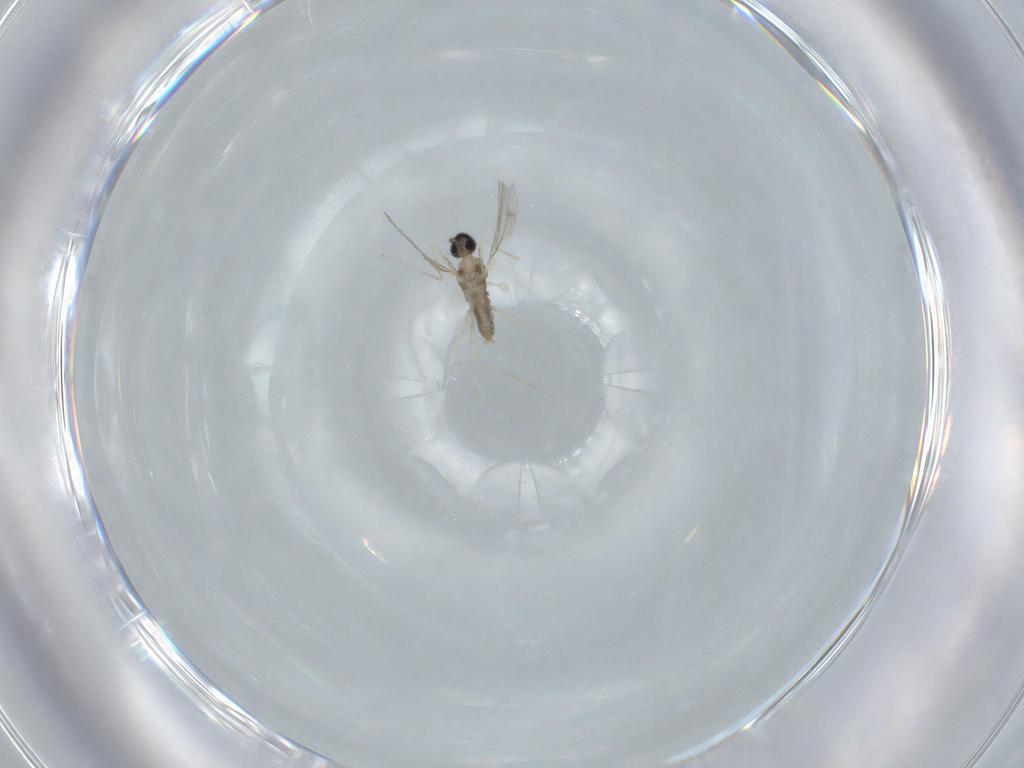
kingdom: Animalia
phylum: Arthropoda
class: Insecta
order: Diptera
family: Cecidomyiidae
